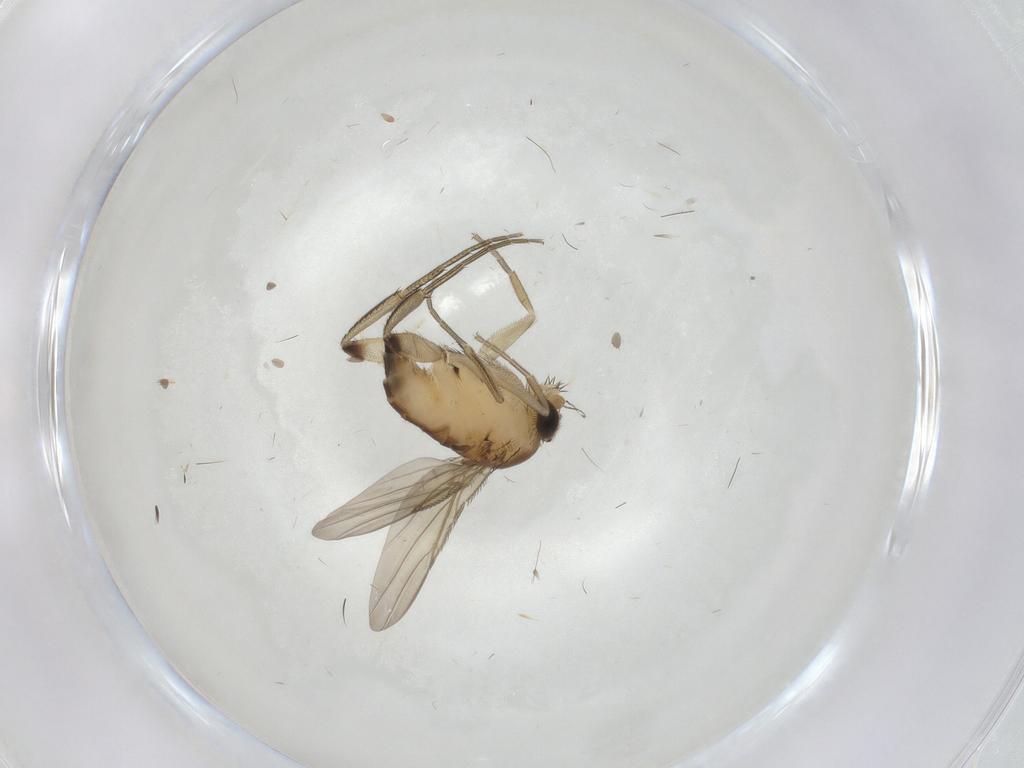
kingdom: Animalia
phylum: Arthropoda
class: Insecta
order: Diptera
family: Phoridae
